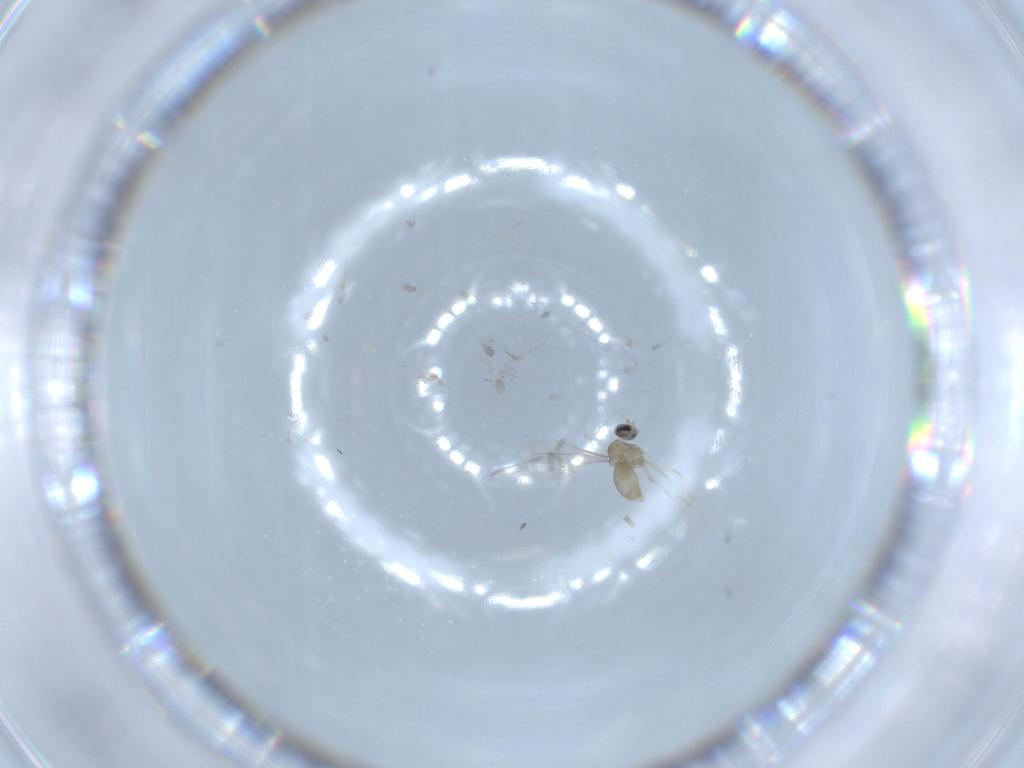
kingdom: Animalia
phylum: Arthropoda
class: Insecta
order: Diptera
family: Cecidomyiidae
